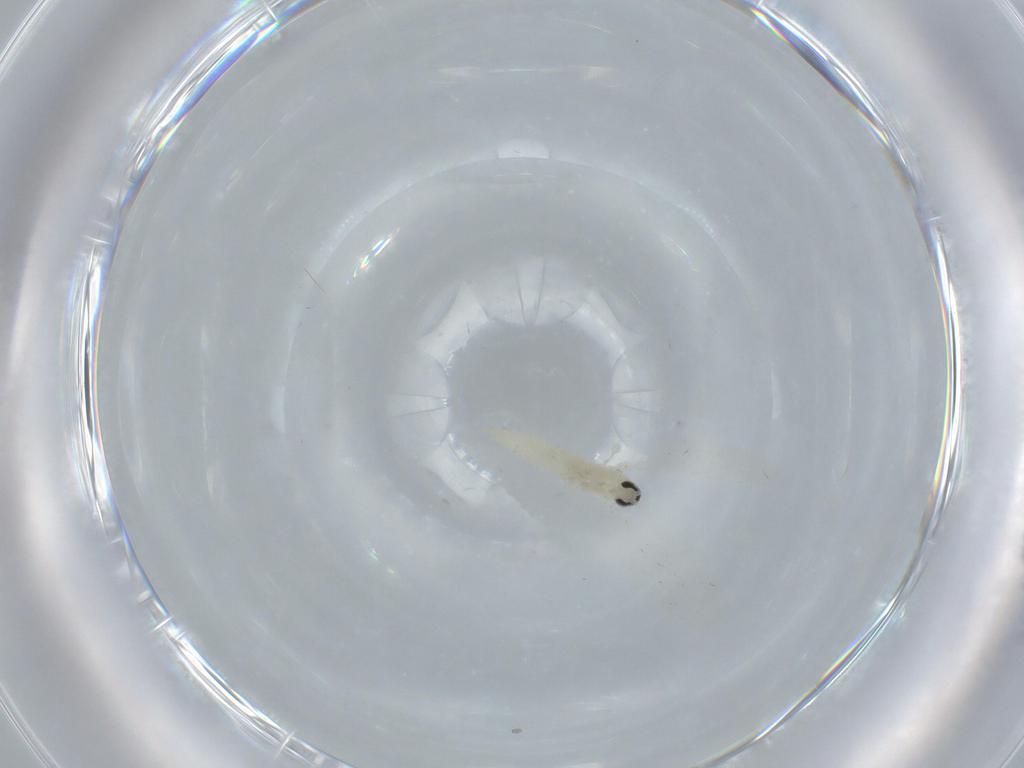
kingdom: Animalia
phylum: Arthropoda
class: Insecta
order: Diptera
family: Cecidomyiidae
